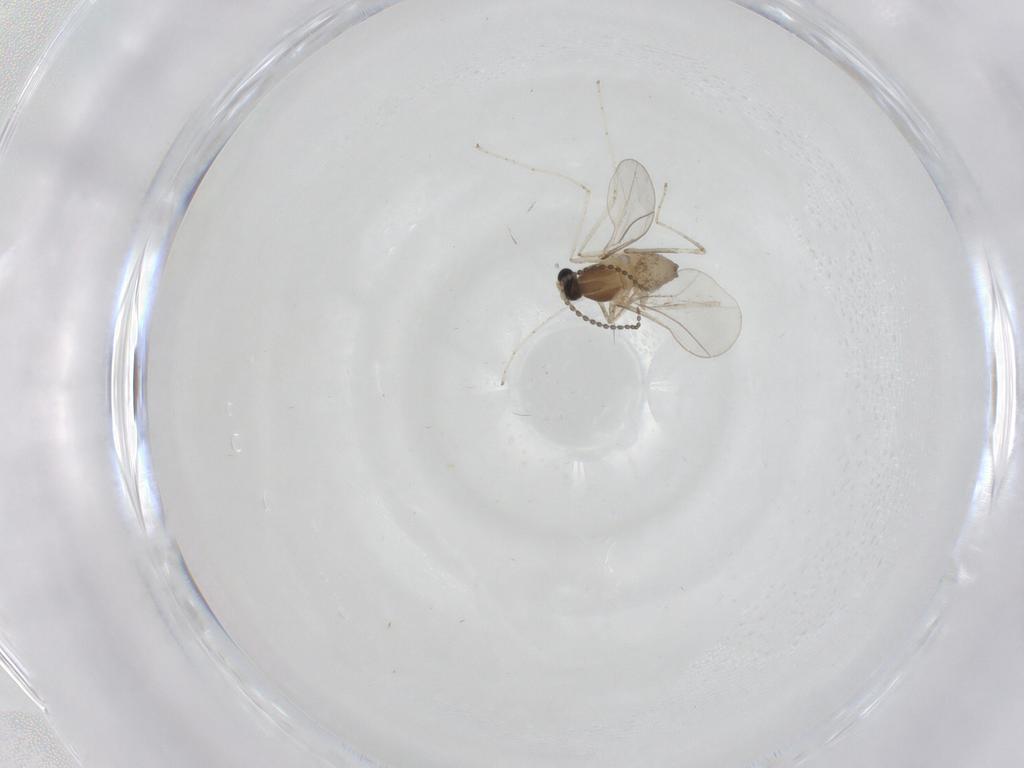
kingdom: Animalia
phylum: Arthropoda
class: Insecta
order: Diptera
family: Cecidomyiidae
